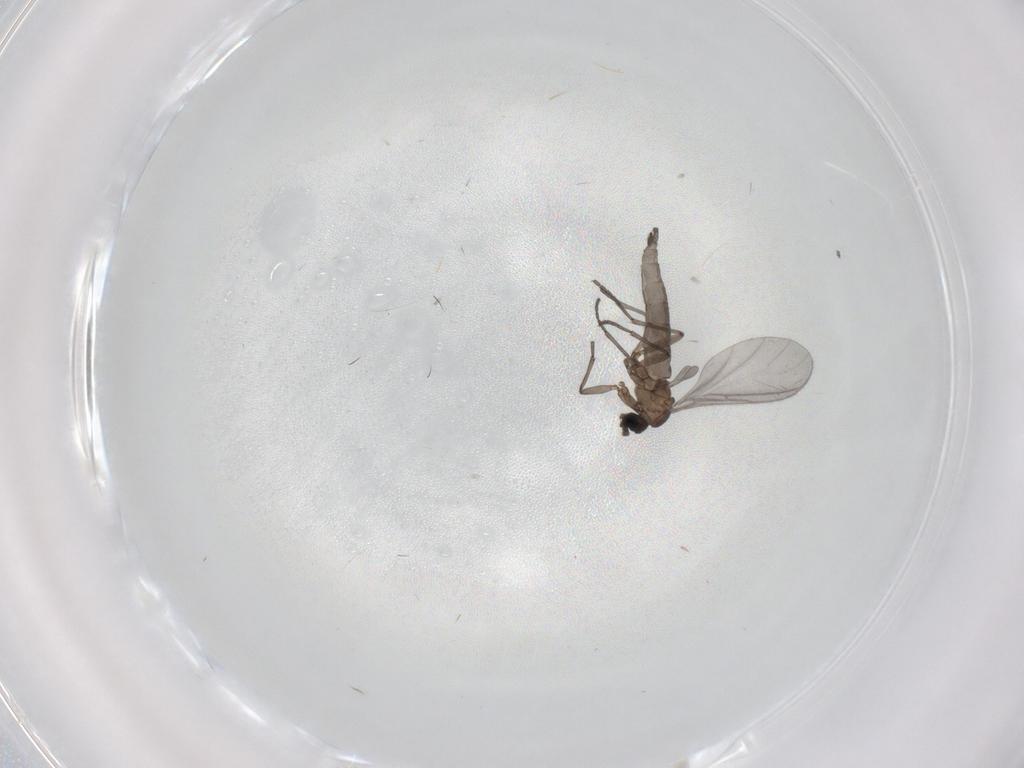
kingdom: Animalia
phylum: Arthropoda
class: Insecta
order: Diptera
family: Sciaridae
